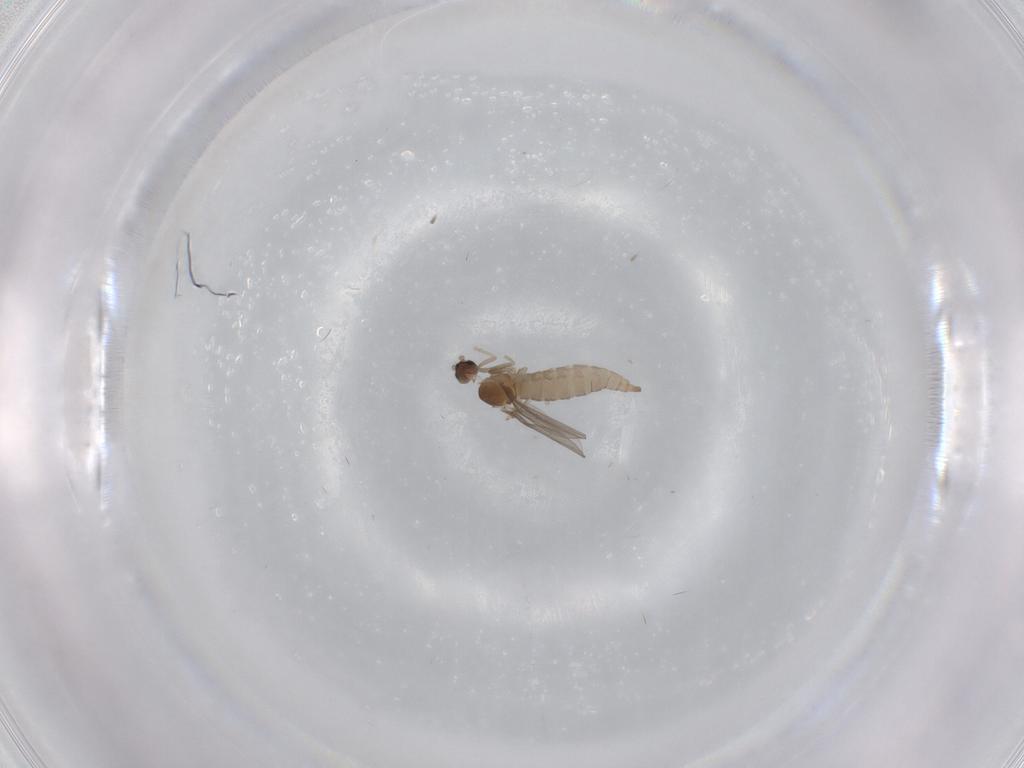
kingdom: Animalia
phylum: Arthropoda
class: Insecta
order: Diptera
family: Cecidomyiidae
